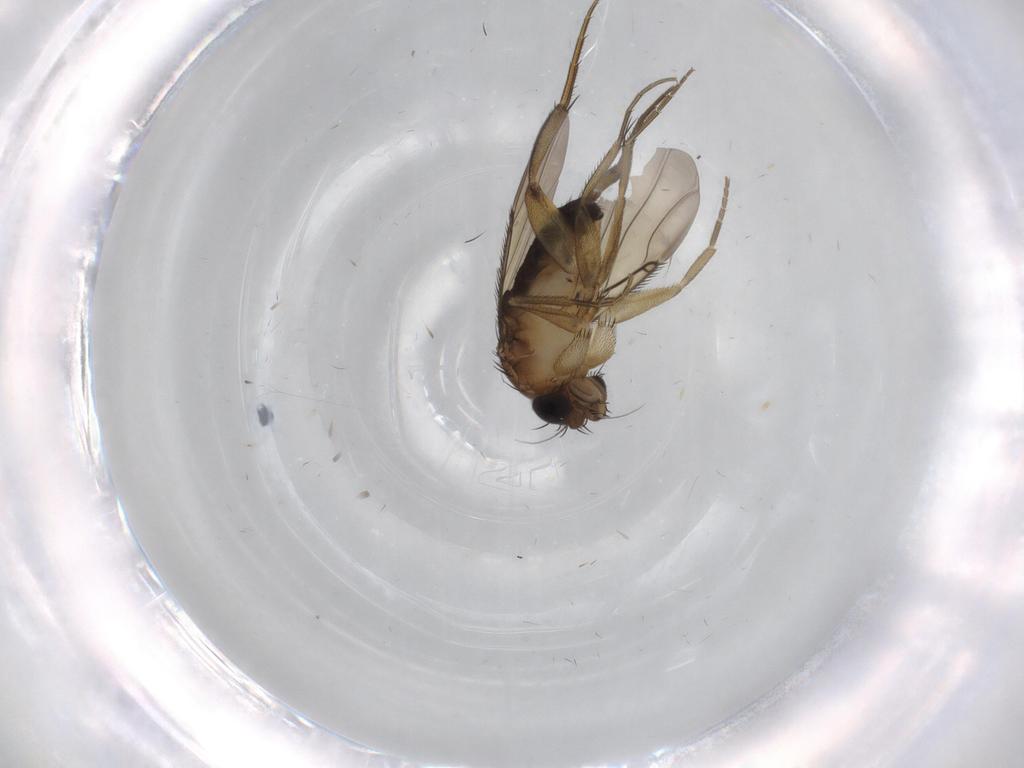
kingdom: Animalia
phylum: Arthropoda
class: Insecta
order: Diptera
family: Phoridae
